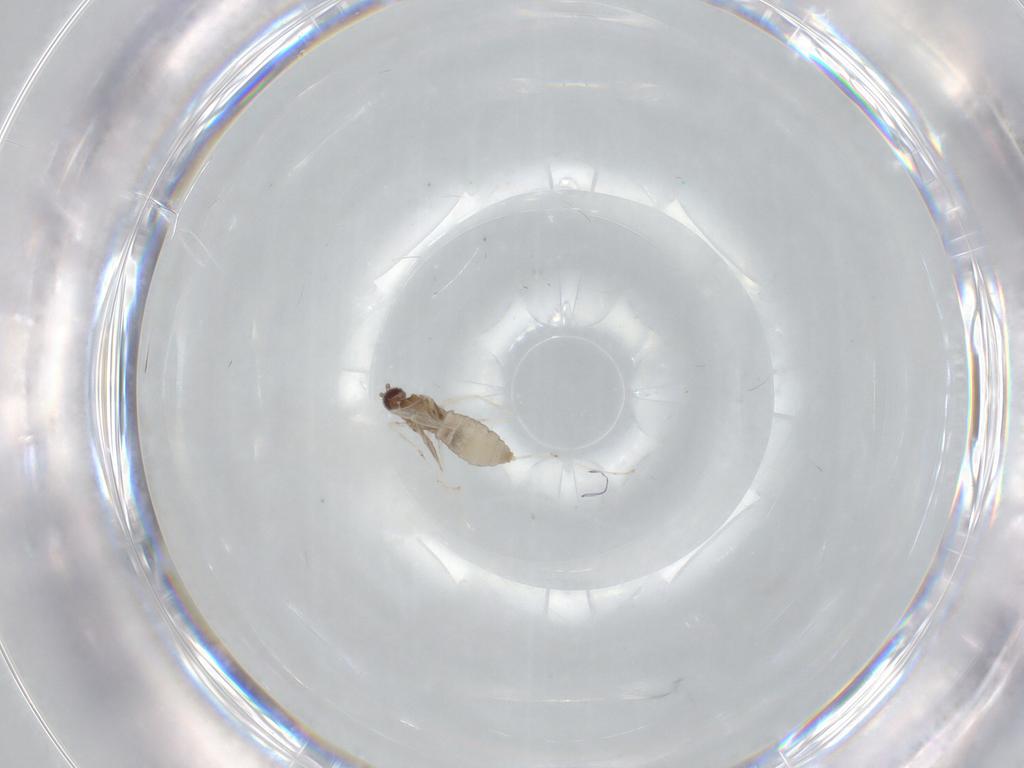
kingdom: Animalia
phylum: Arthropoda
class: Insecta
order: Diptera
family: Cecidomyiidae
